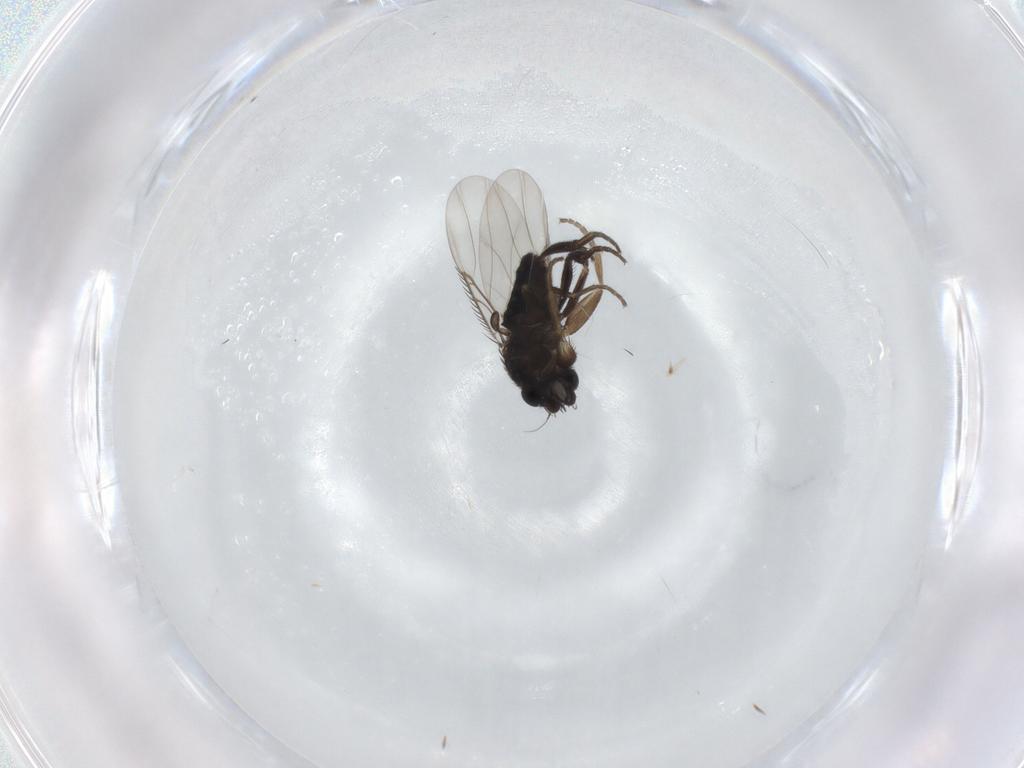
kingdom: Animalia
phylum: Arthropoda
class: Insecta
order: Diptera
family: Phoridae
